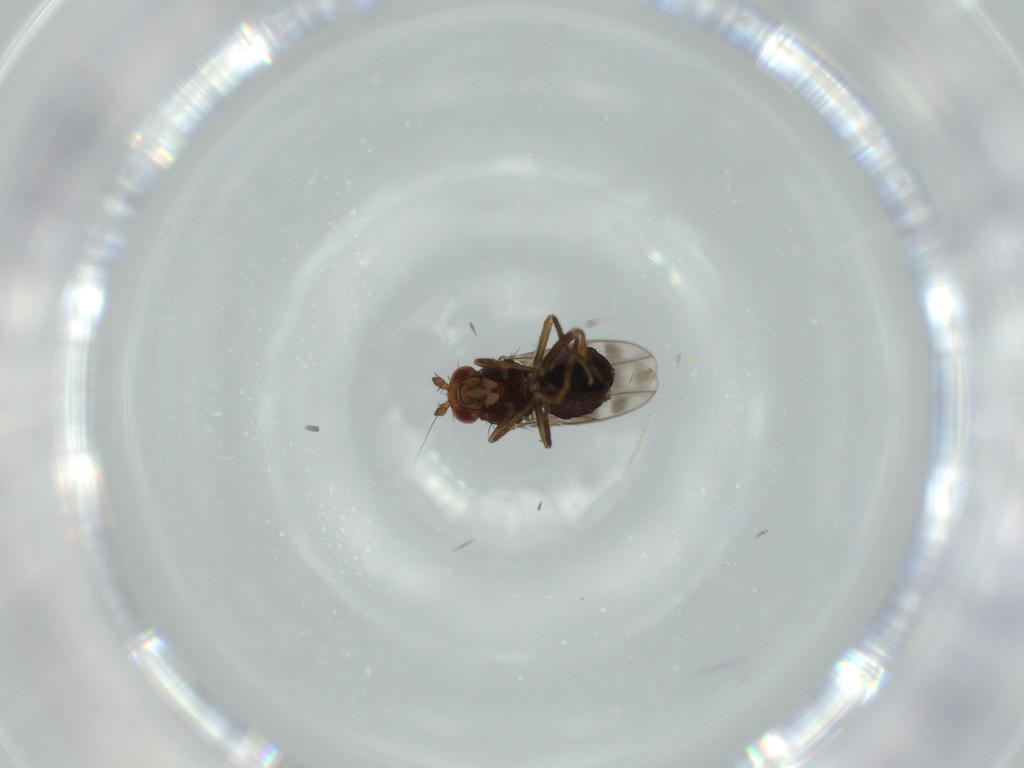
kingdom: Animalia
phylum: Arthropoda
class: Insecta
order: Diptera
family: Sphaeroceridae
